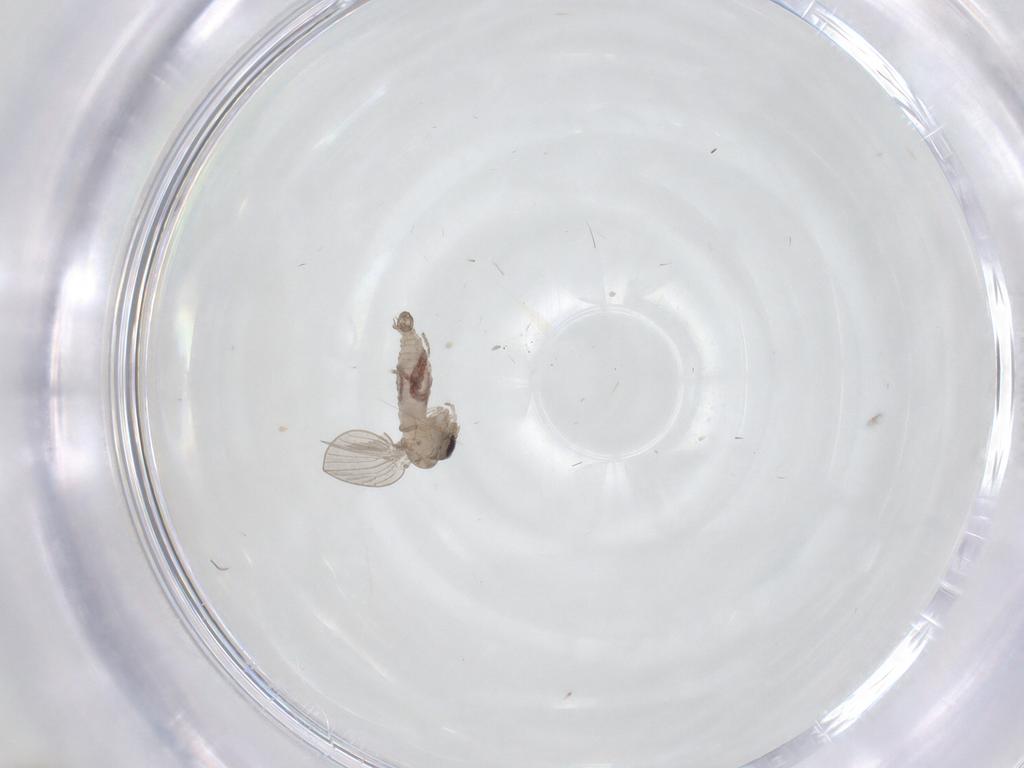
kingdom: Animalia
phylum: Arthropoda
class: Insecta
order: Diptera
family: Psychodidae
